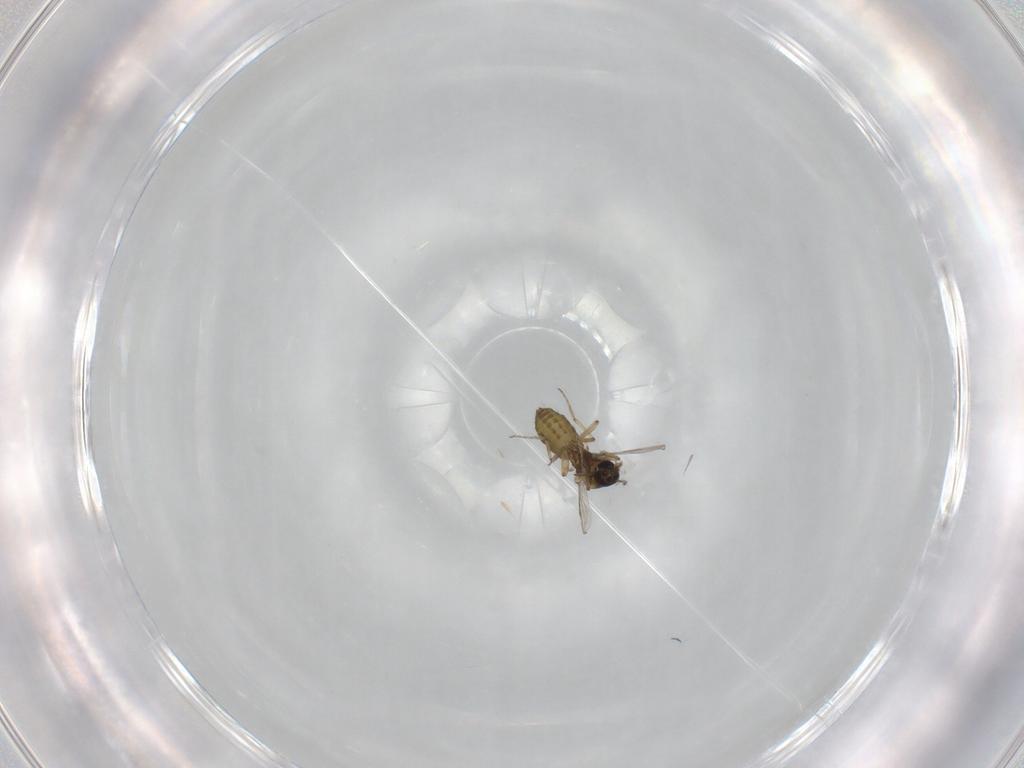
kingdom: Animalia
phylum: Arthropoda
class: Insecta
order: Diptera
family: Ceratopogonidae
